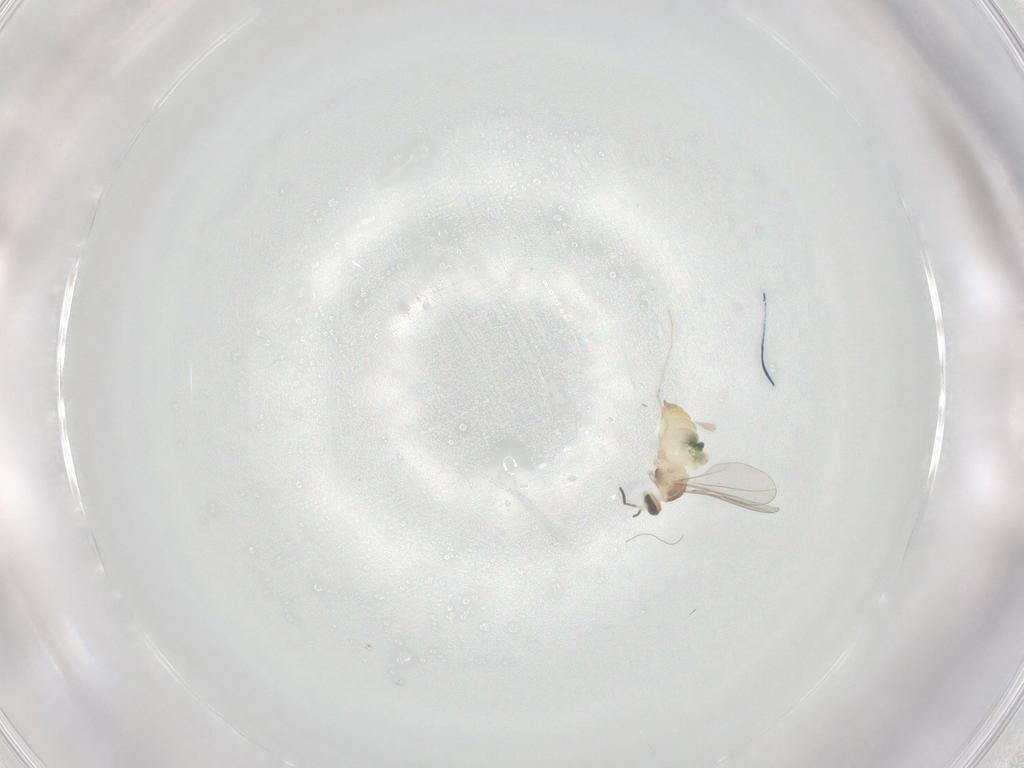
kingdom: Animalia
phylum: Arthropoda
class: Insecta
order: Diptera
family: Cecidomyiidae
